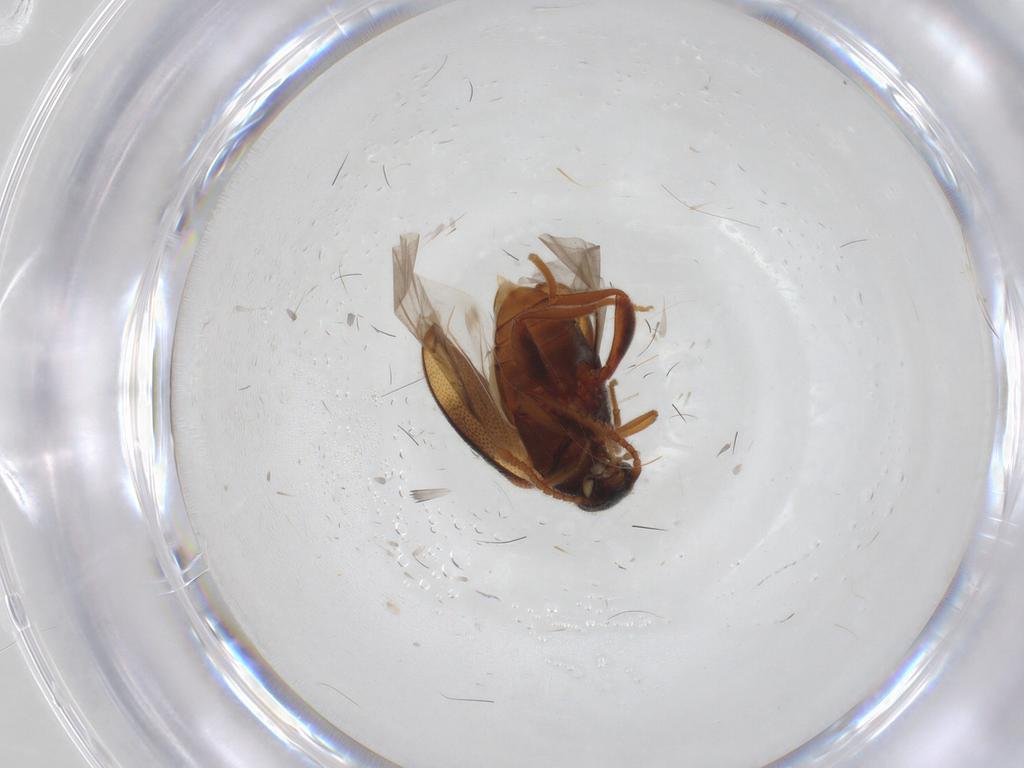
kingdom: Animalia
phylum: Arthropoda
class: Insecta
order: Coleoptera
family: Aderidae
